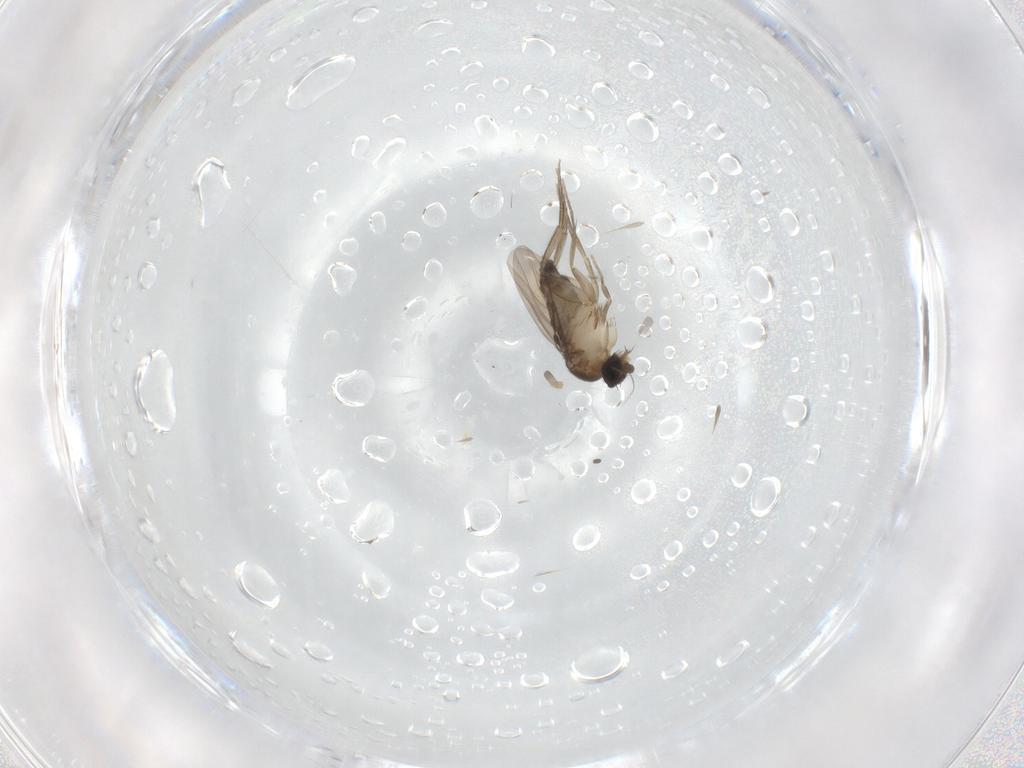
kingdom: Animalia
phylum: Arthropoda
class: Insecta
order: Diptera
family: Phoridae
